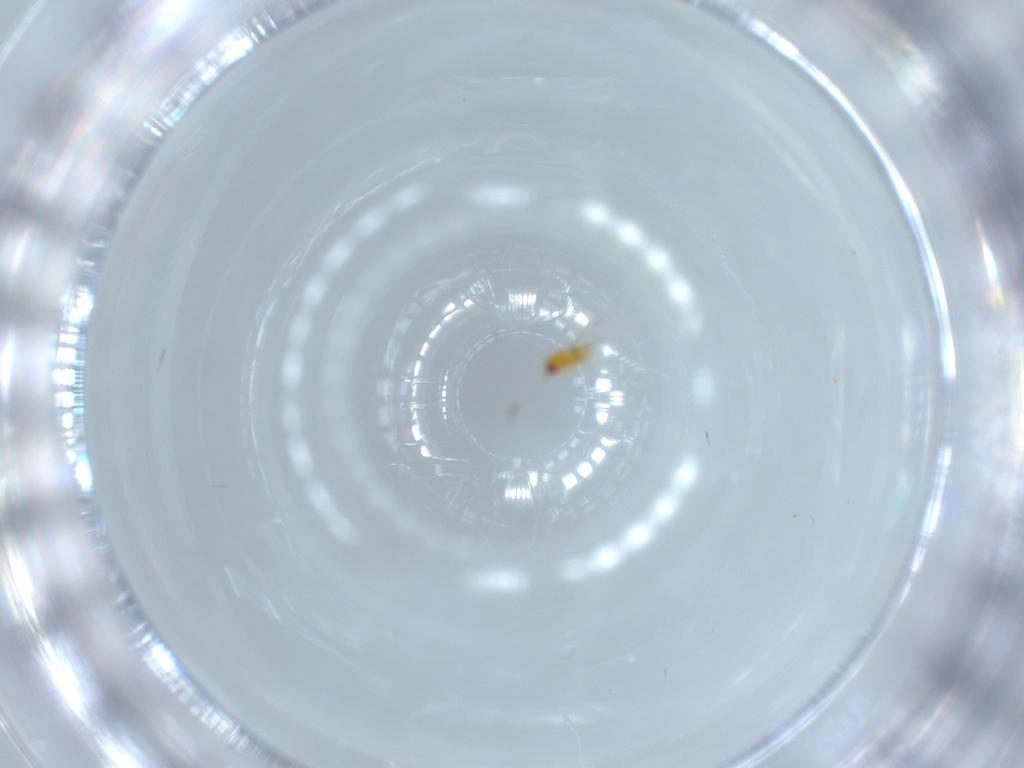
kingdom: Animalia
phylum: Arthropoda
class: Insecta
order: Hymenoptera
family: Trichogrammatidae
